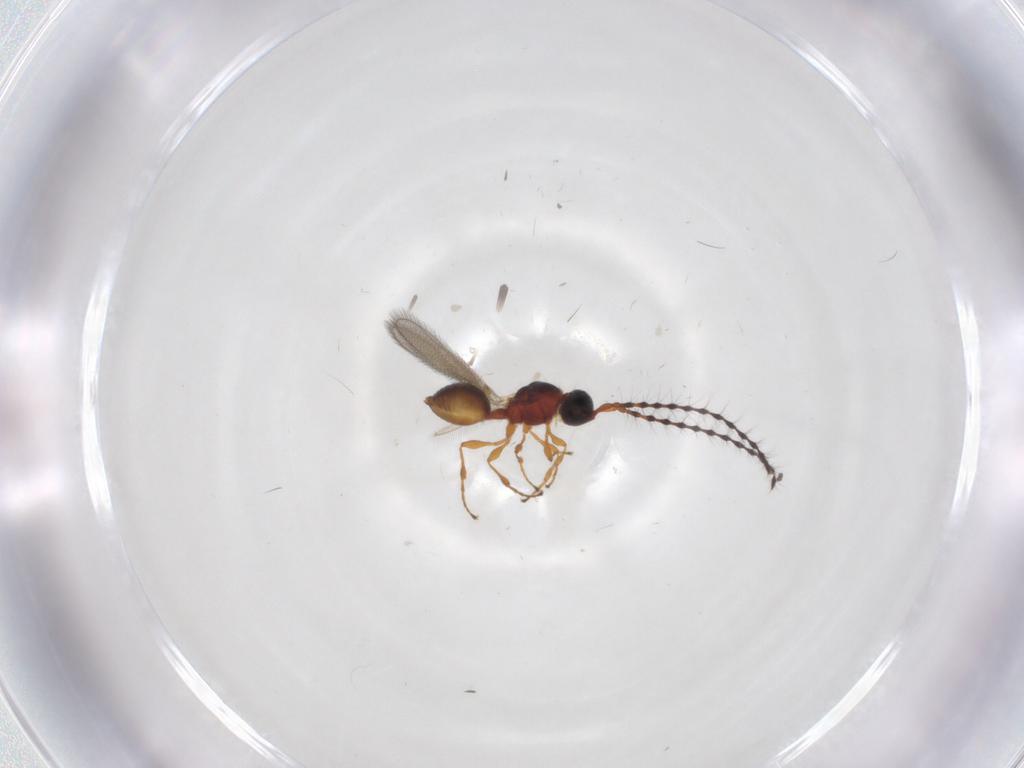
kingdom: Animalia
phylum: Arthropoda
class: Insecta
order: Hymenoptera
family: Diapriidae
